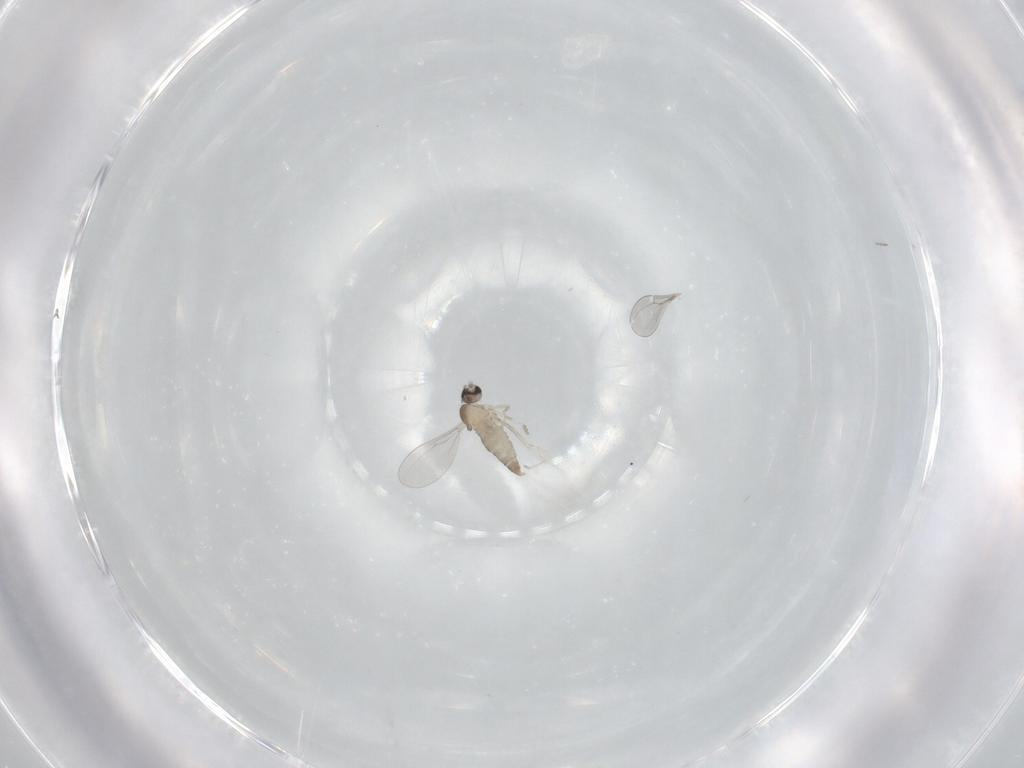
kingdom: Animalia
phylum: Arthropoda
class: Insecta
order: Diptera
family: Cecidomyiidae
